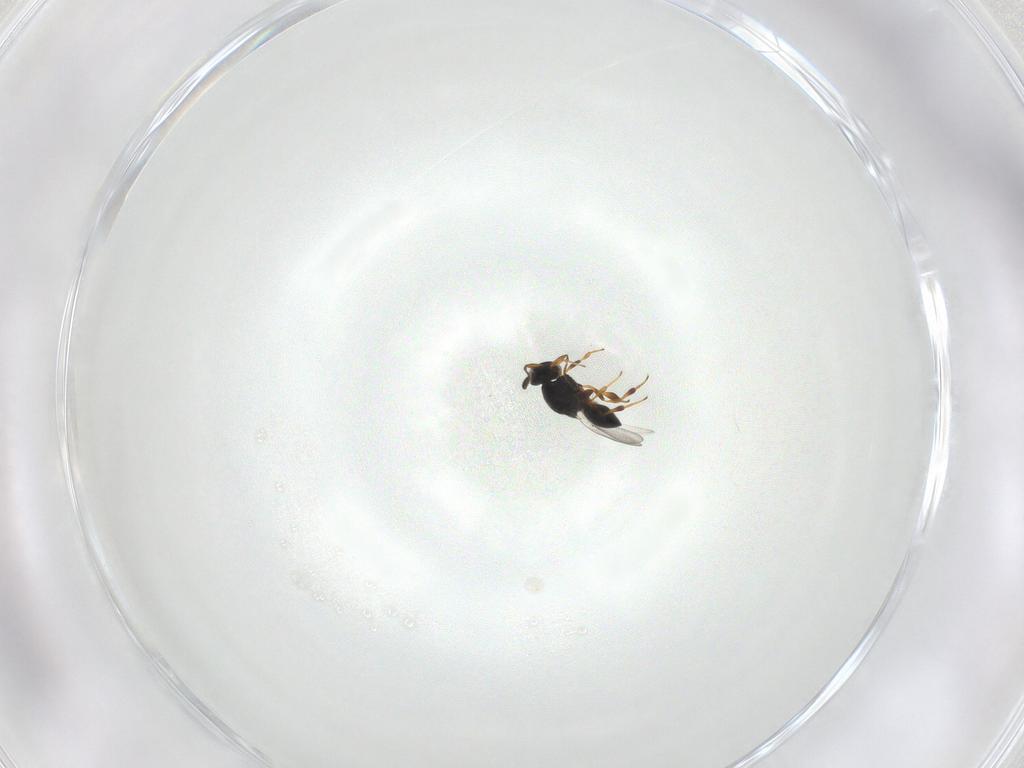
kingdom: Animalia
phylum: Arthropoda
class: Insecta
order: Hymenoptera
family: Platygastridae
